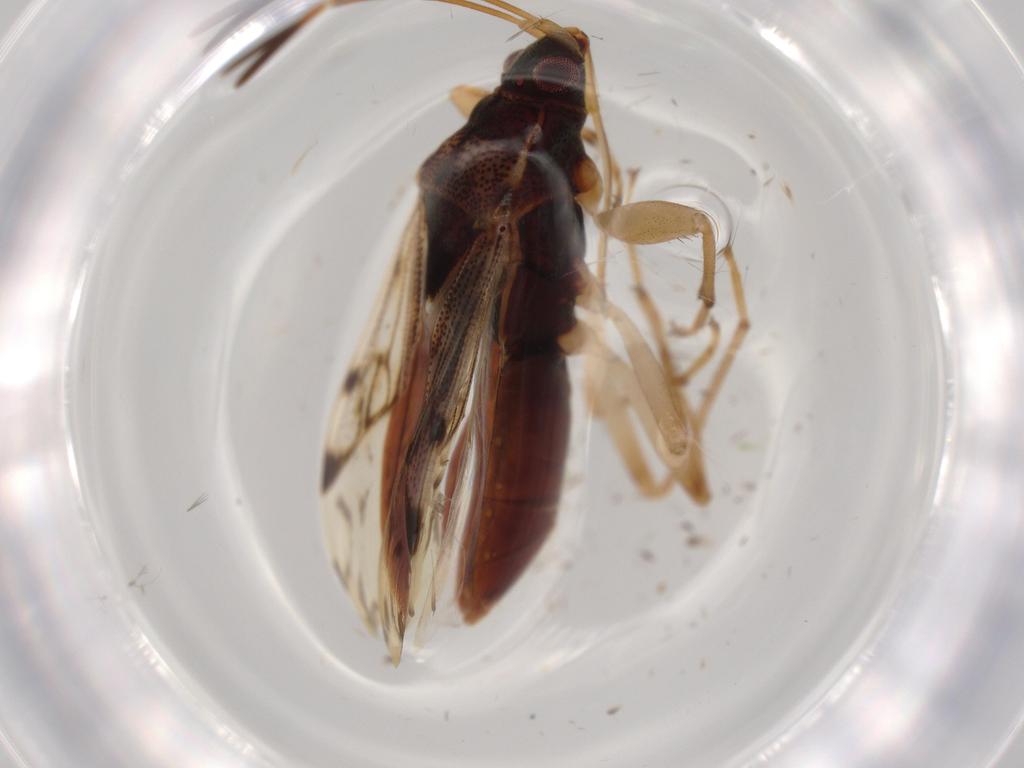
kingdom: Animalia
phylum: Arthropoda
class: Insecta
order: Hemiptera
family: Rhyparochromidae
